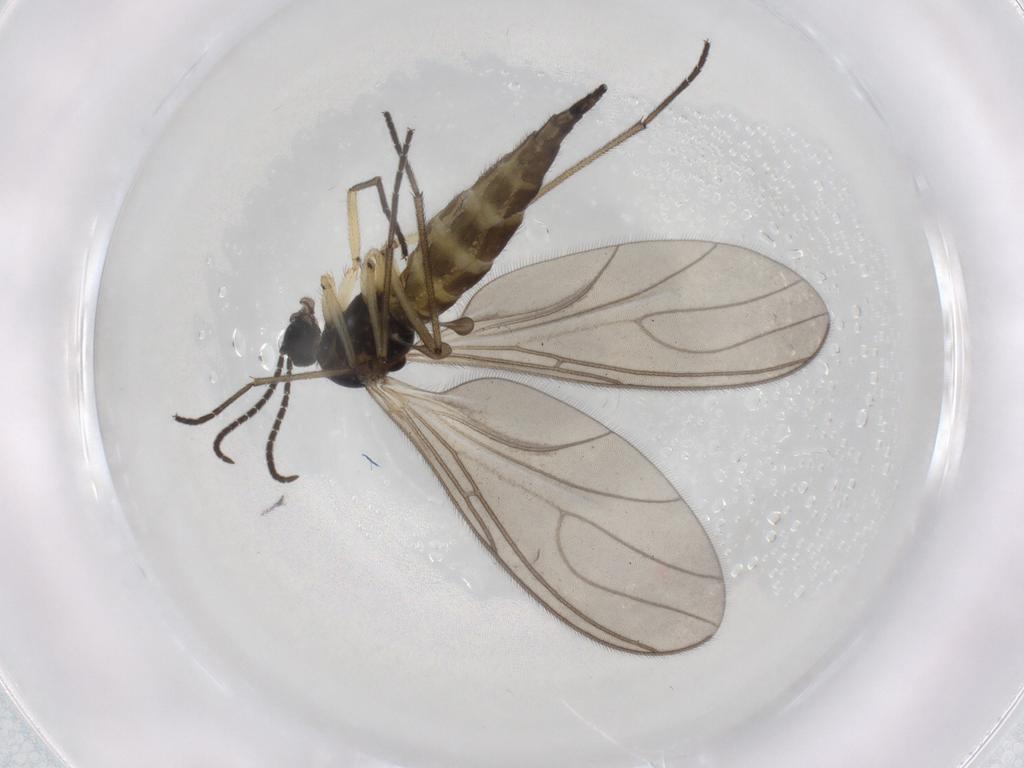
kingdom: Animalia
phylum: Arthropoda
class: Insecta
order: Diptera
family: Sciaridae
